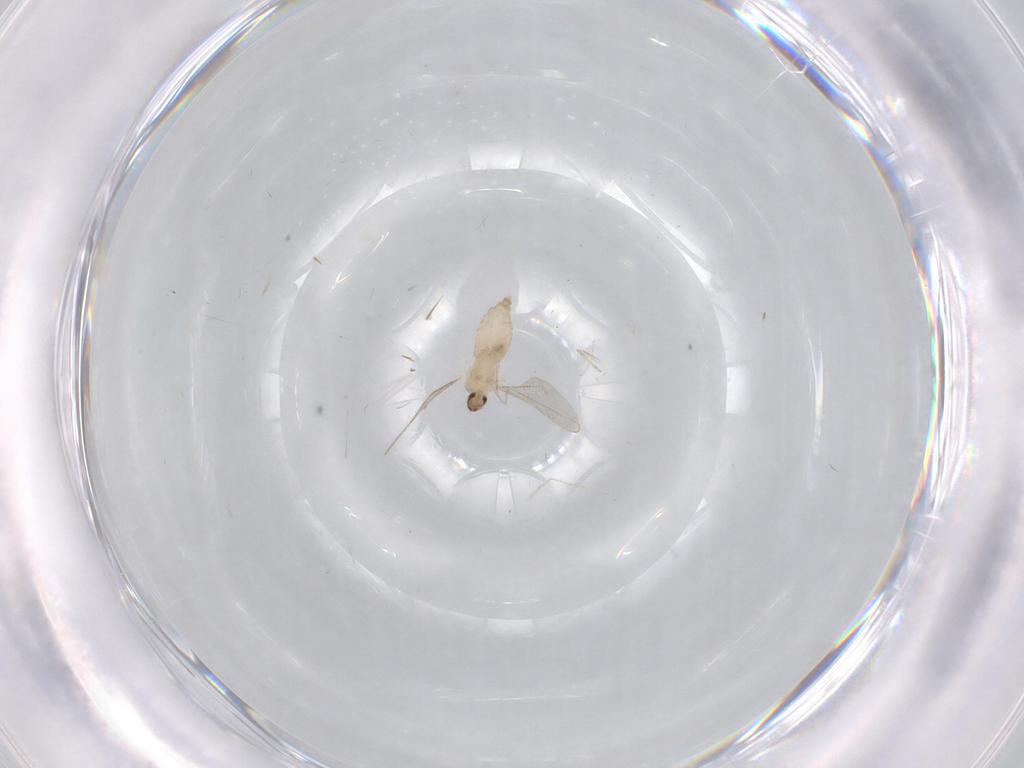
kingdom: Animalia
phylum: Arthropoda
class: Insecta
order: Diptera
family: Cecidomyiidae
